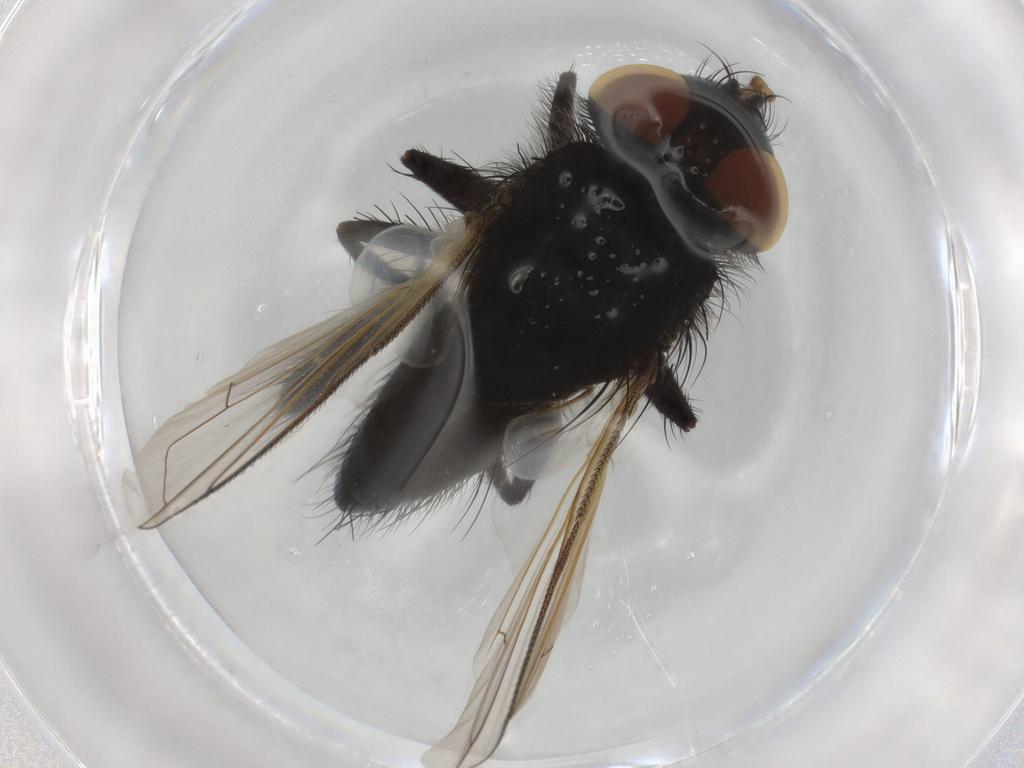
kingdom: Animalia
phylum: Arthropoda
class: Insecta
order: Diptera
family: Tachinidae
